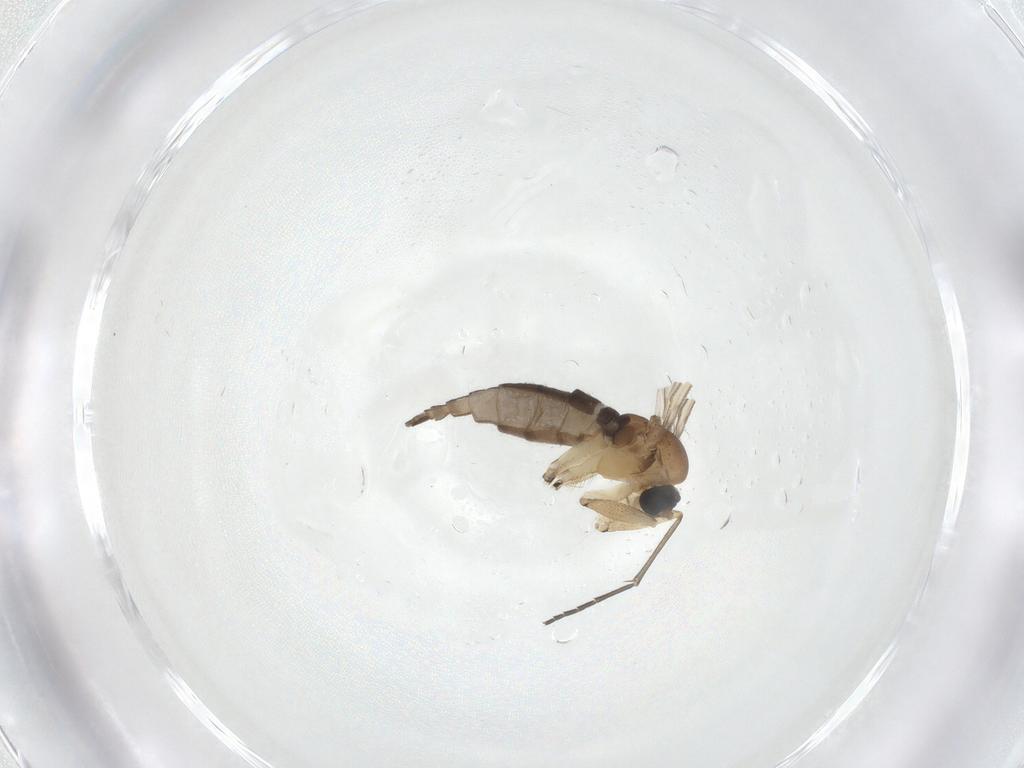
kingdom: Animalia
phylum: Arthropoda
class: Insecta
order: Diptera
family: Sciaridae
